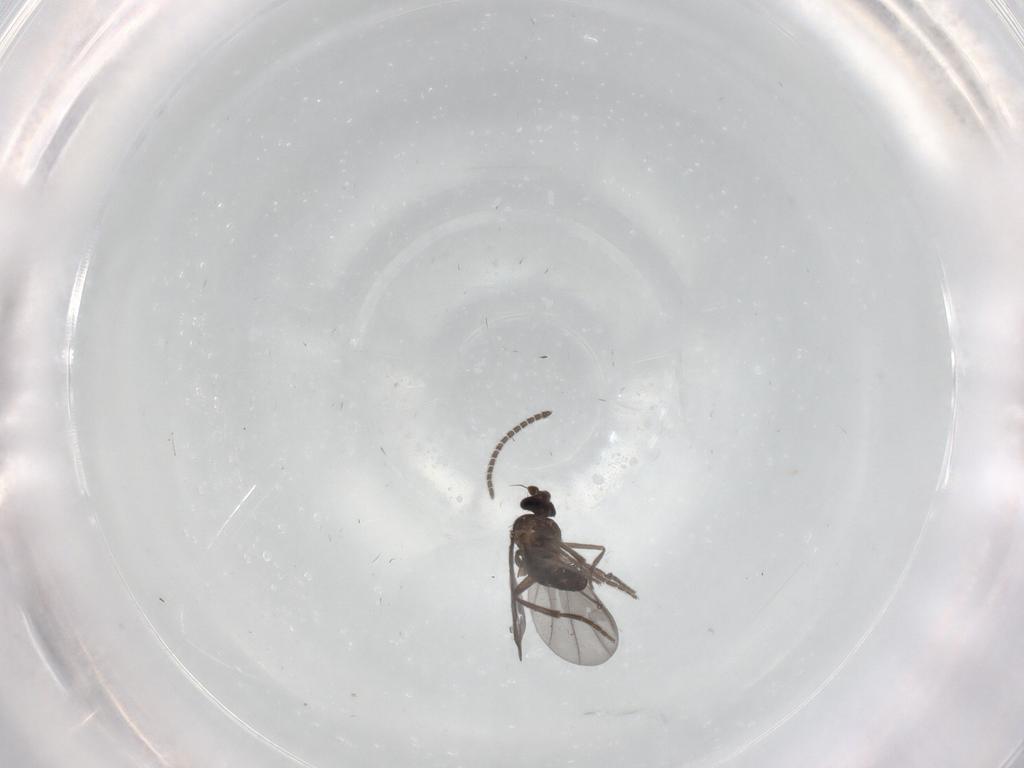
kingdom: Animalia
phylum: Arthropoda
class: Insecta
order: Diptera
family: Phoridae
